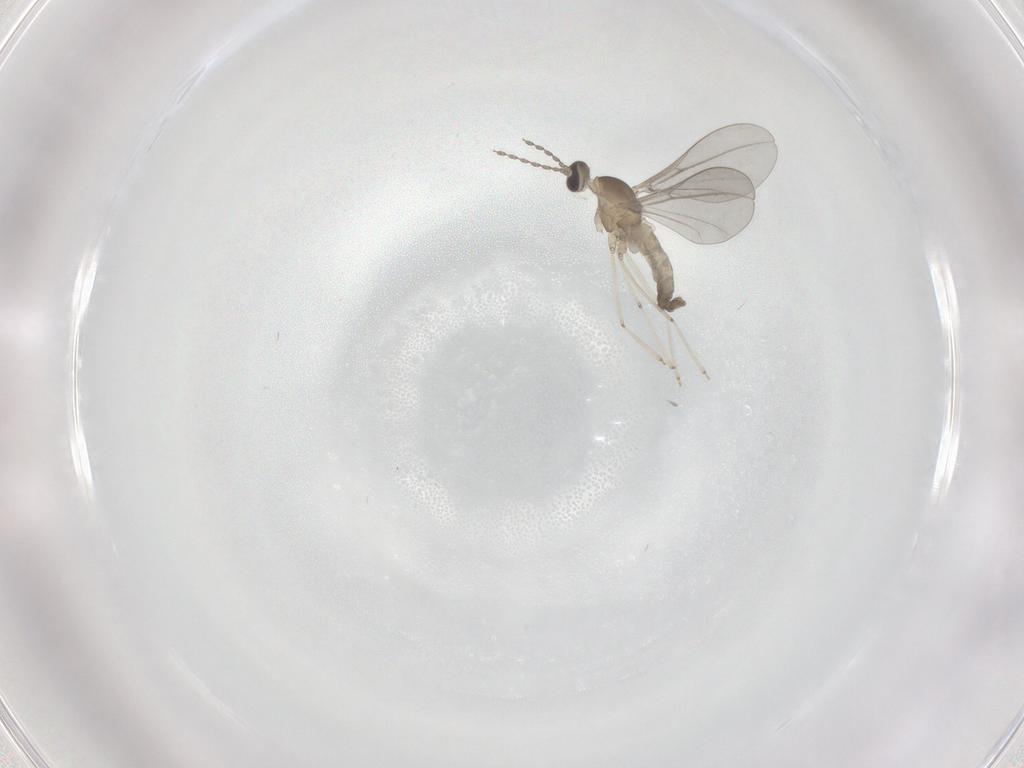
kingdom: Animalia
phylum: Arthropoda
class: Insecta
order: Diptera
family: Cecidomyiidae
